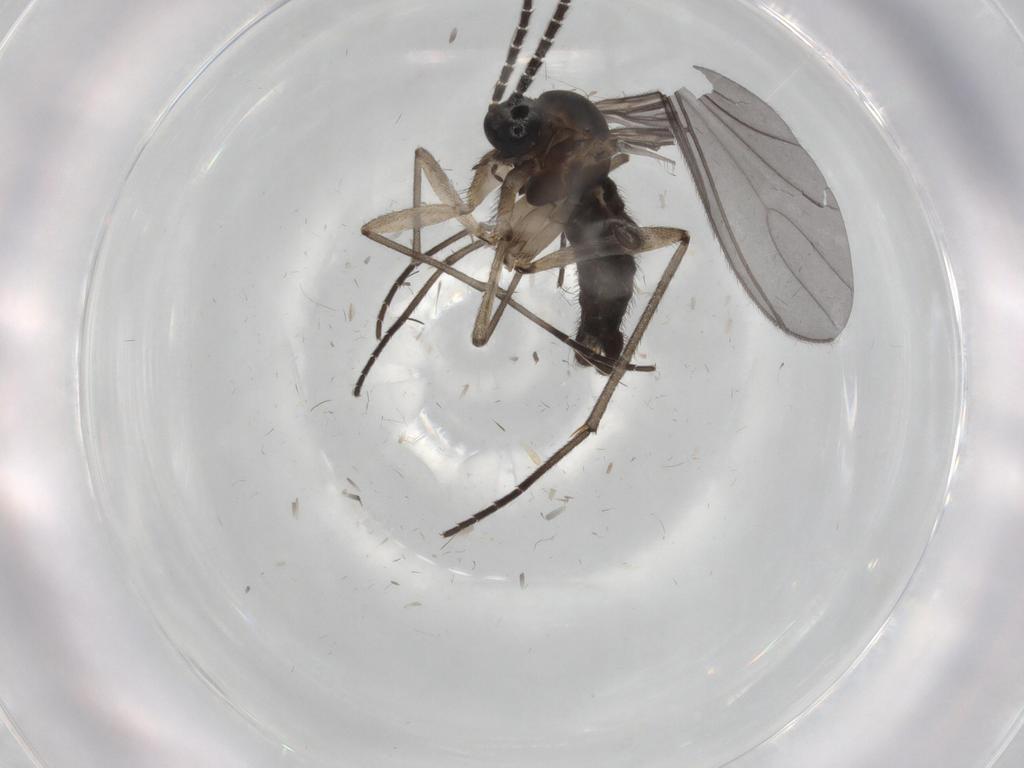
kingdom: Animalia
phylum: Arthropoda
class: Insecta
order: Diptera
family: Sciaridae
